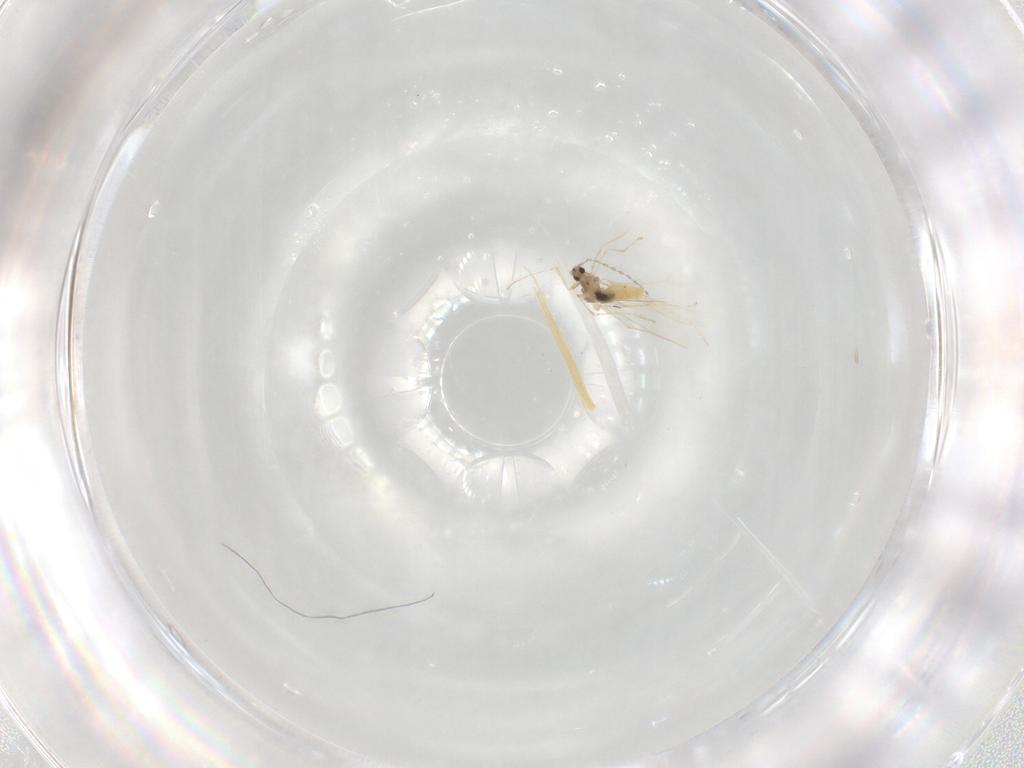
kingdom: Animalia
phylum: Arthropoda
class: Insecta
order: Diptera
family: Cecidomyiidae
